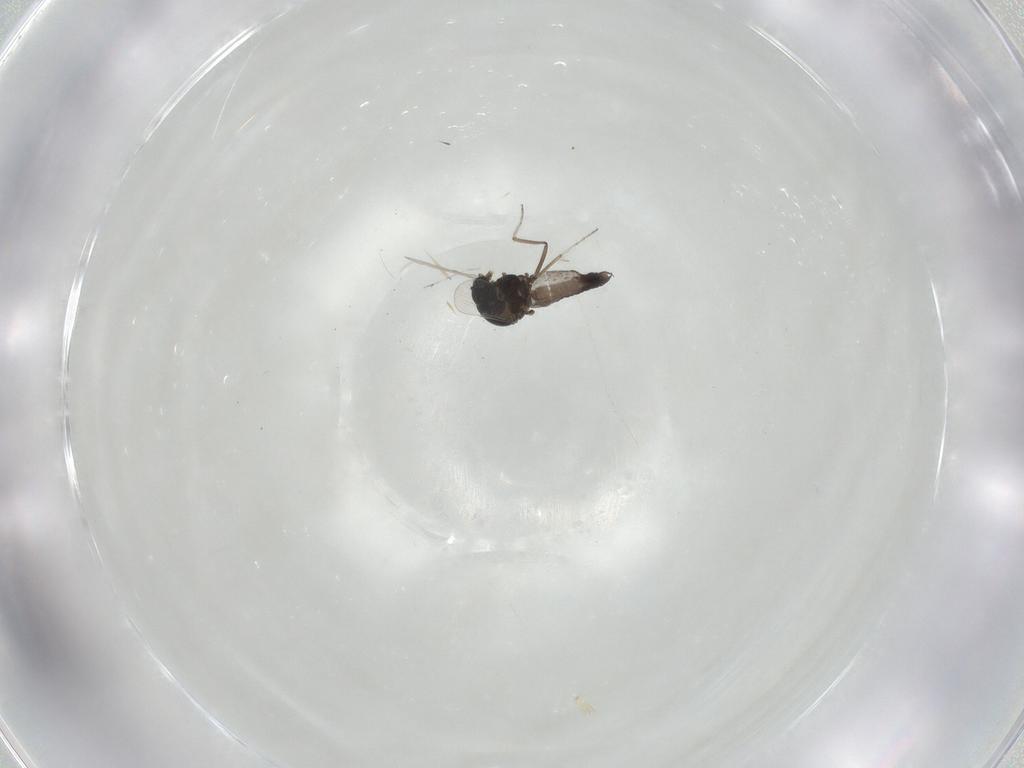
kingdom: Animalia
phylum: Arthropoda
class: Insecta
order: Diptera
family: Ceratopogonidae
